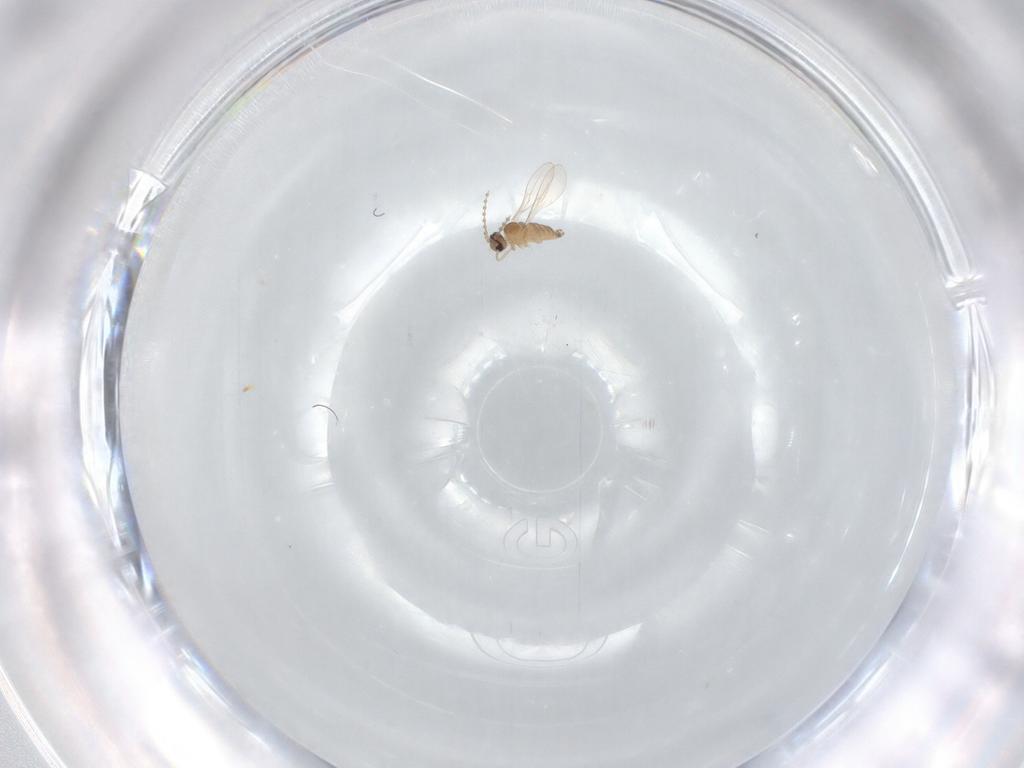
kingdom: Animalia
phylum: Arthropoda
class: Insecta
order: Diptera
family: Cecidomyiidae
